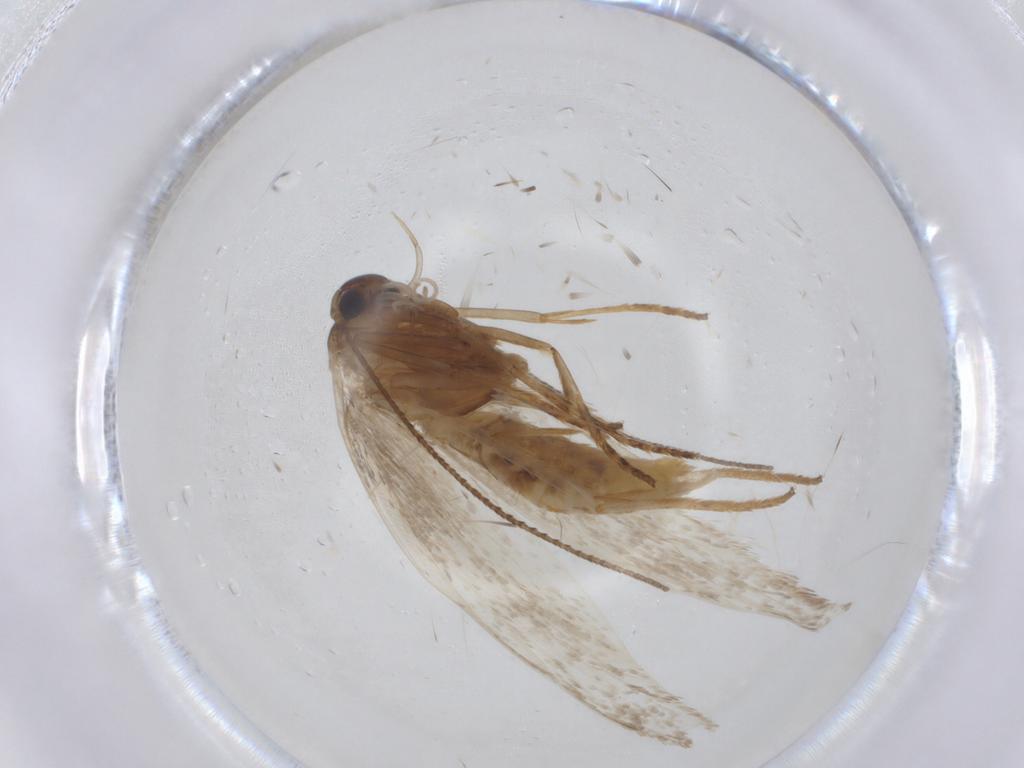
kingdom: Animalia
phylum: Arthropoda
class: Insecta
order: Lepidoptera
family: Erebidae
